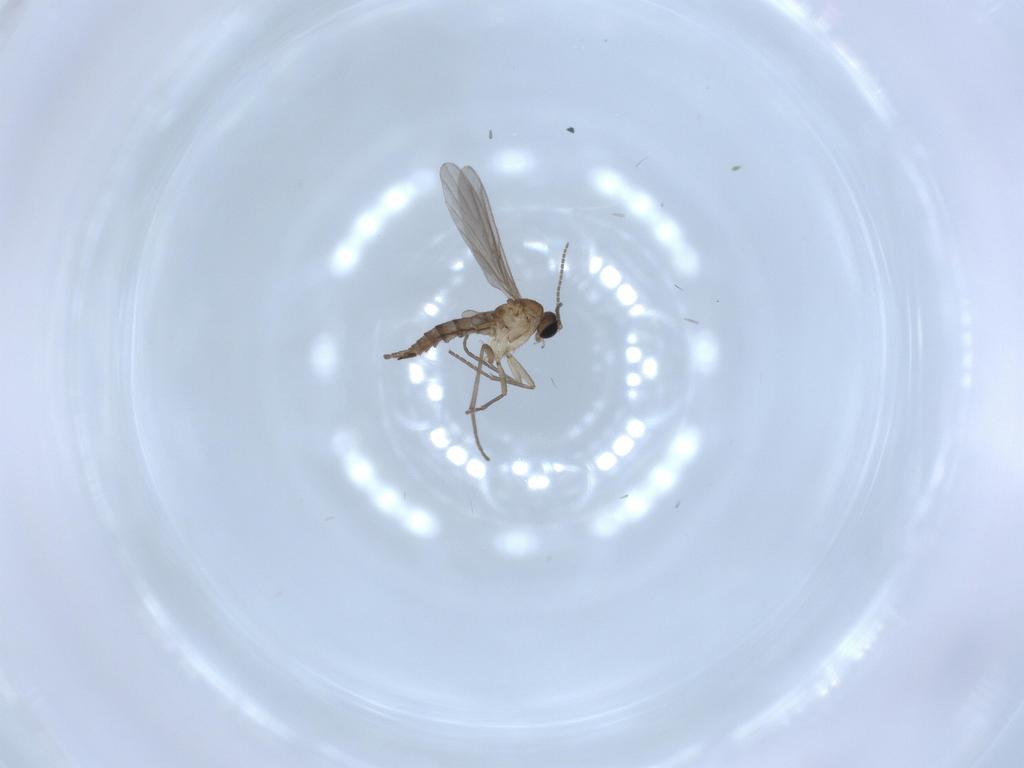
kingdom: Animalia
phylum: Arthropoda
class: Insecta
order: Diptera
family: Sciaridae
